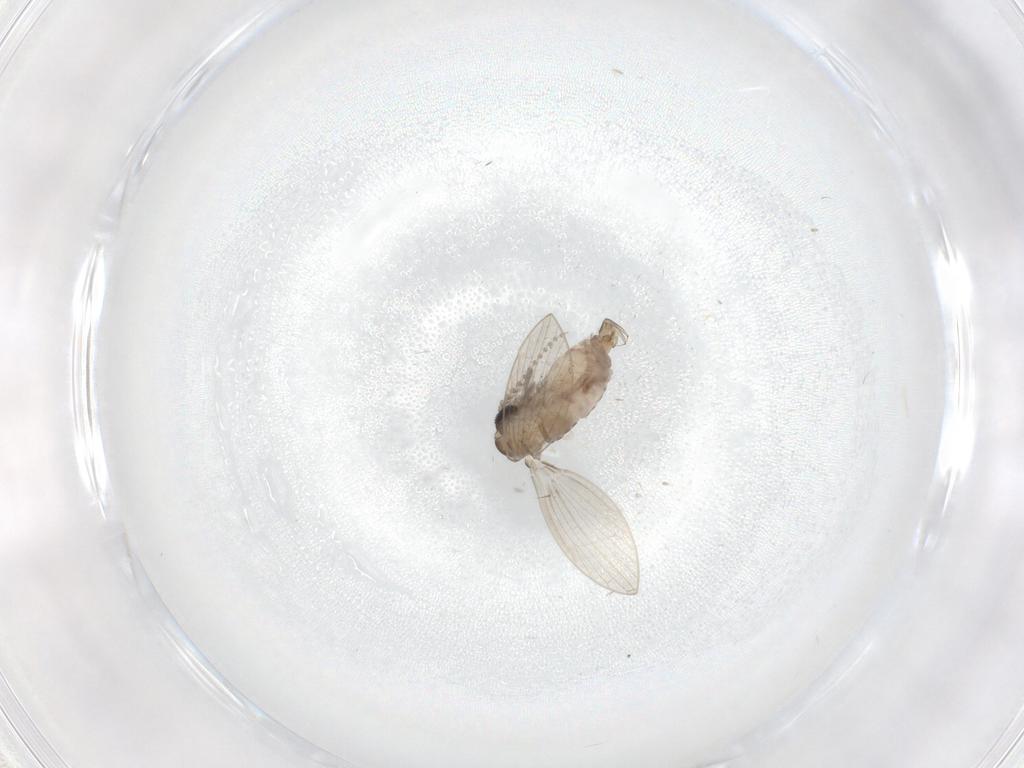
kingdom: Animalia
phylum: Arthropoda
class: Insecta
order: Diptera
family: Psychodidae
